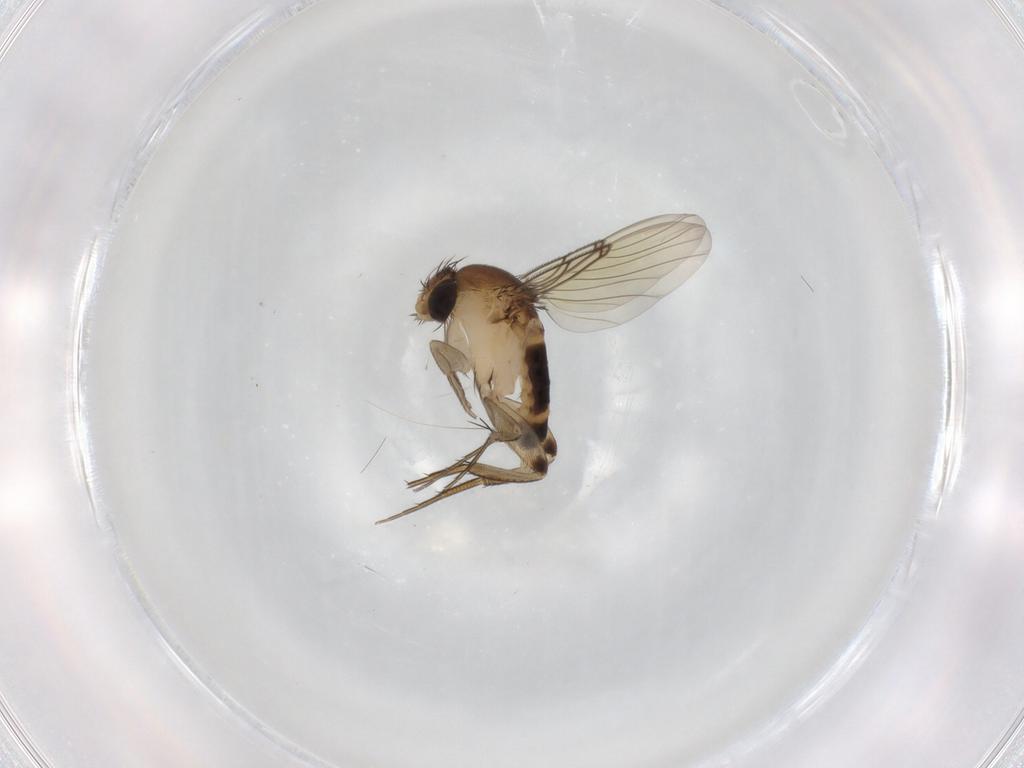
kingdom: Animalia
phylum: Arthropoda
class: Insecta
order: Diptera
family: Phoridae
